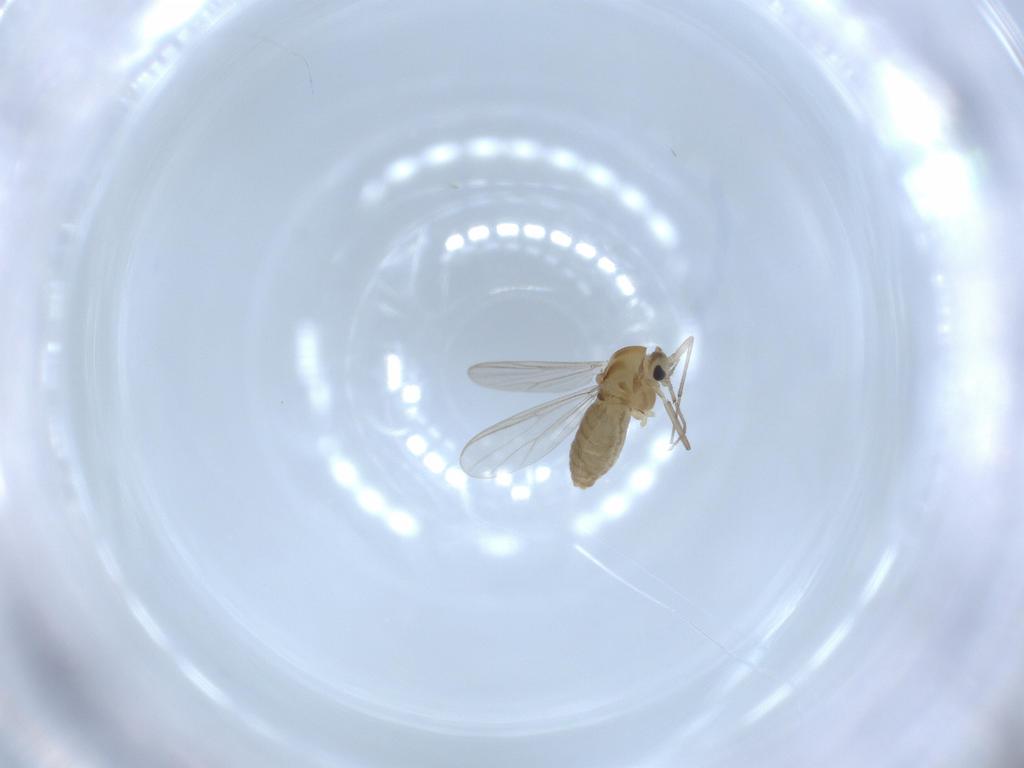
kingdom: Animalia
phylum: Arthropoda
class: Insecta
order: Diptera
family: Chironomidae
